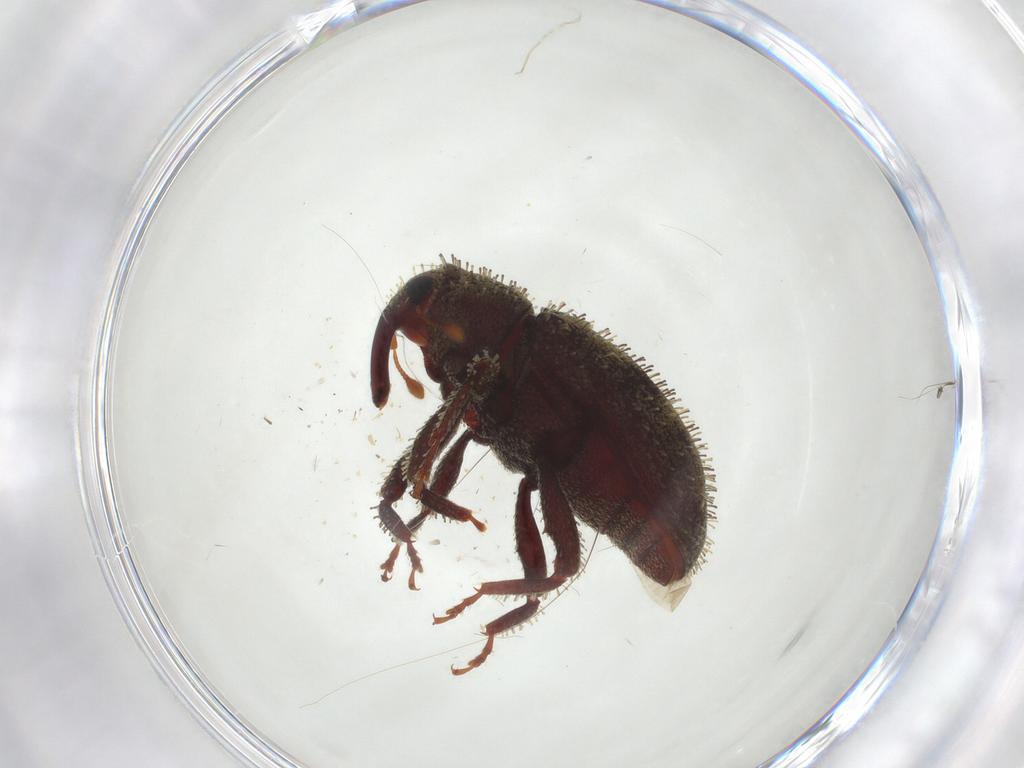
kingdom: Animalia
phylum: Arthropoda
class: Insecta
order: Coleoptera
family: Curculionidae
